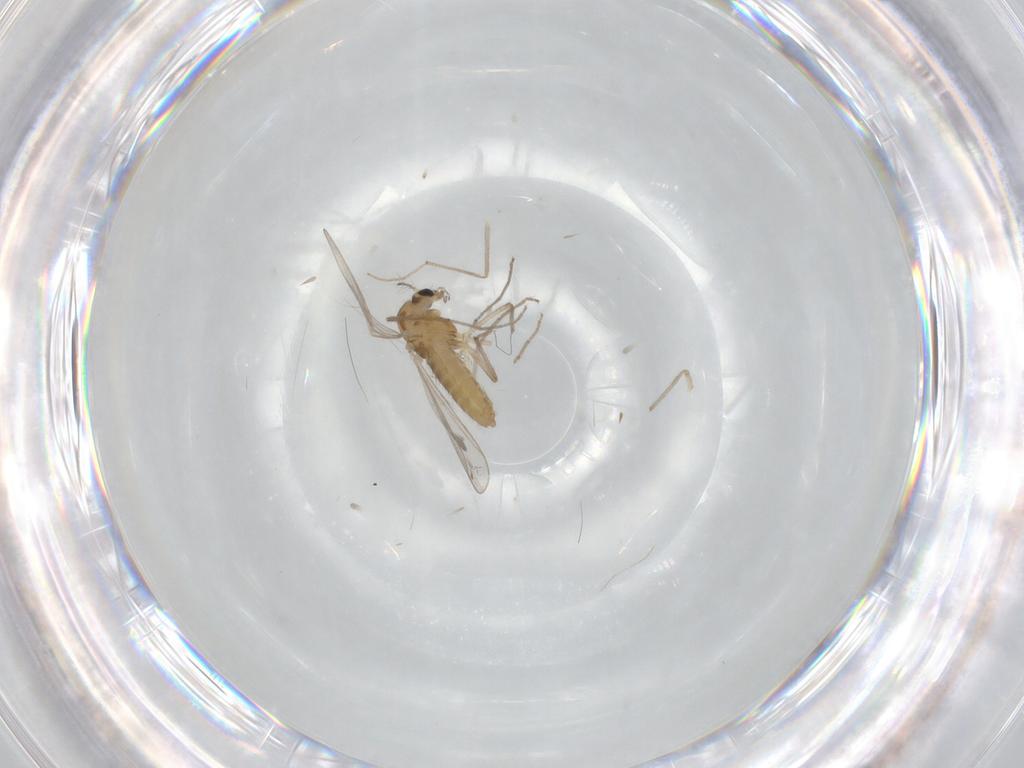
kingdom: Animalia
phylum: Arthropoda
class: Insecta
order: Diptera
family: Chironomidae
